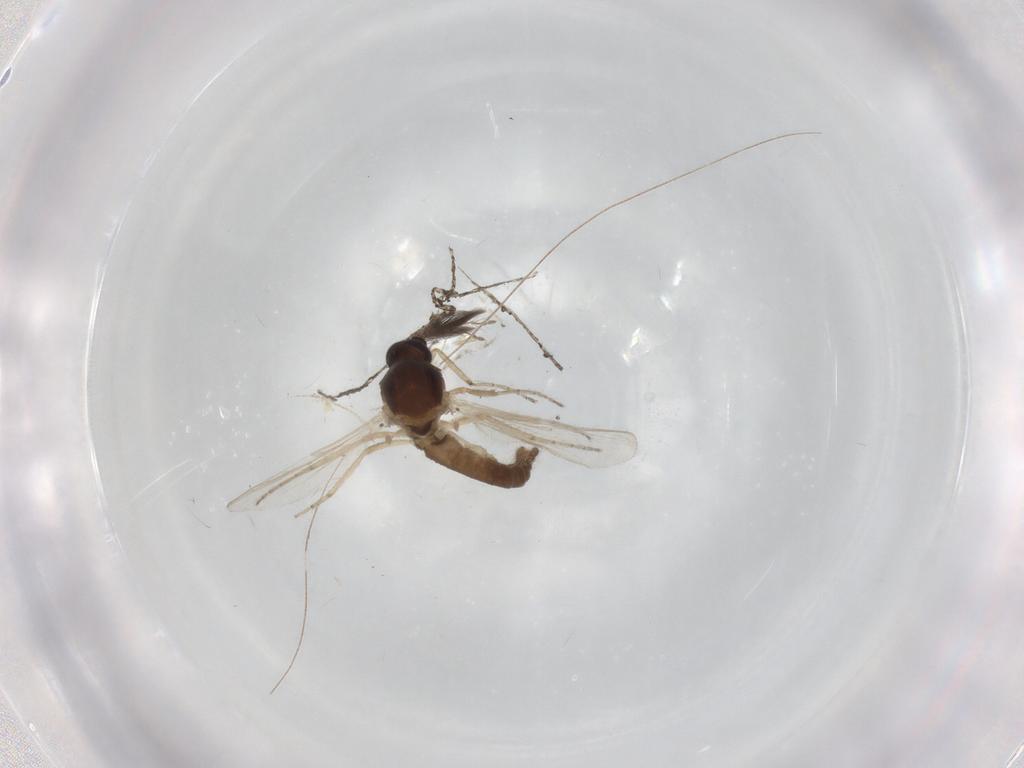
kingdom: Animalia
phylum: Arthropoda
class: Insecta
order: Diptera
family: Ceratopogonidae
